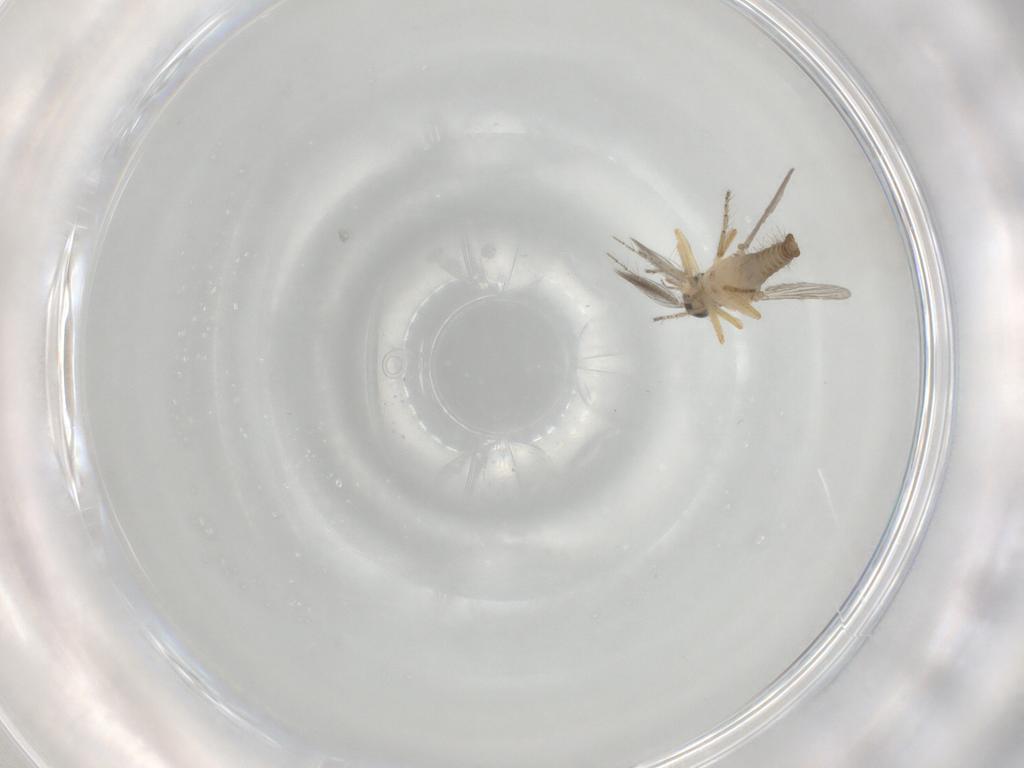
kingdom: Animalia
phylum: Arthropoda
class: Insecta
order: Diptera
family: Ceratopogonidae
